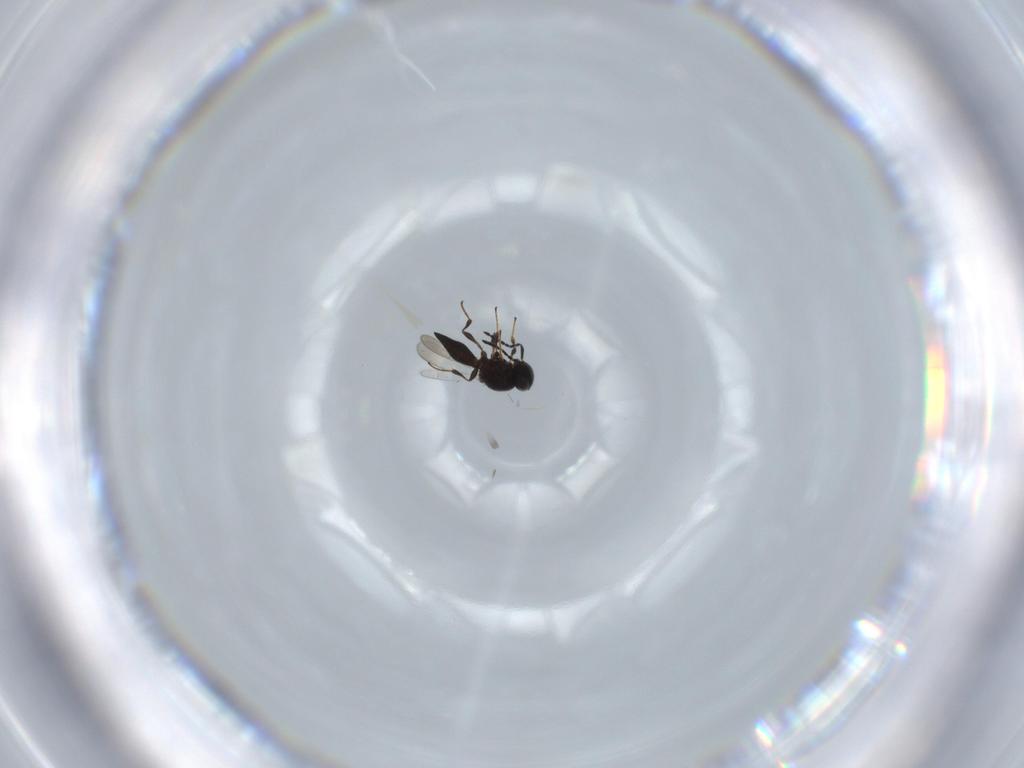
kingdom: Animalia
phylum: Arthropoda
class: Insecta
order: Diptera
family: Mythicomyiidae
